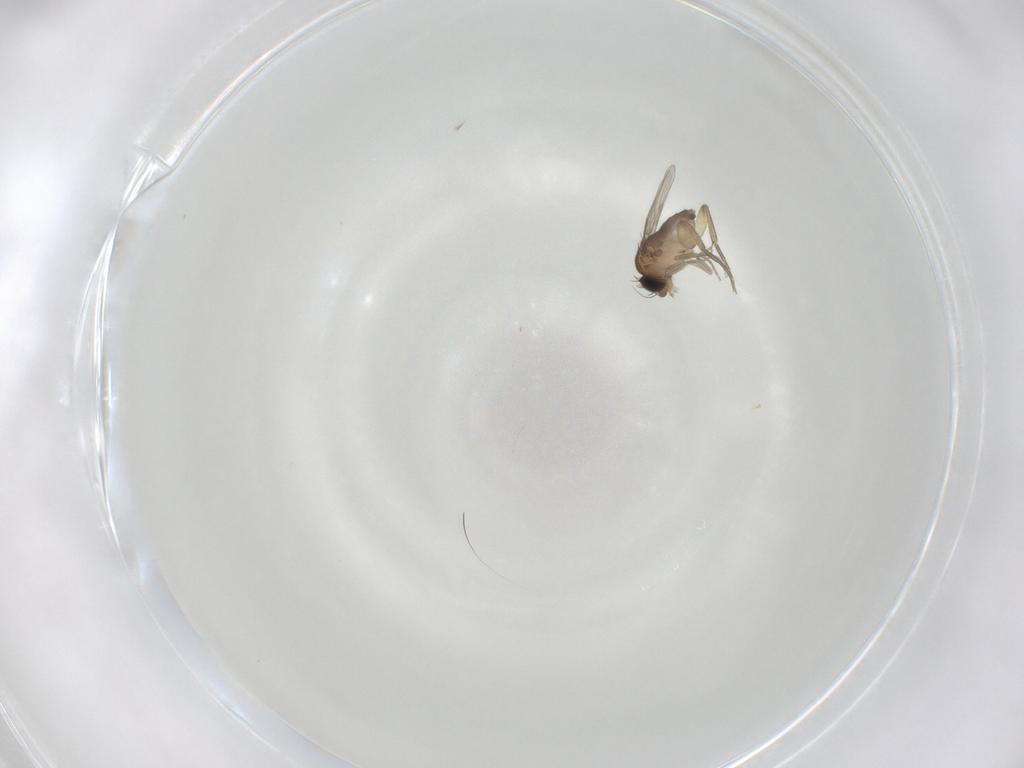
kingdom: Animalia
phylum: Arthropoda
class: Insecta
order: Diptera
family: Phoridae
